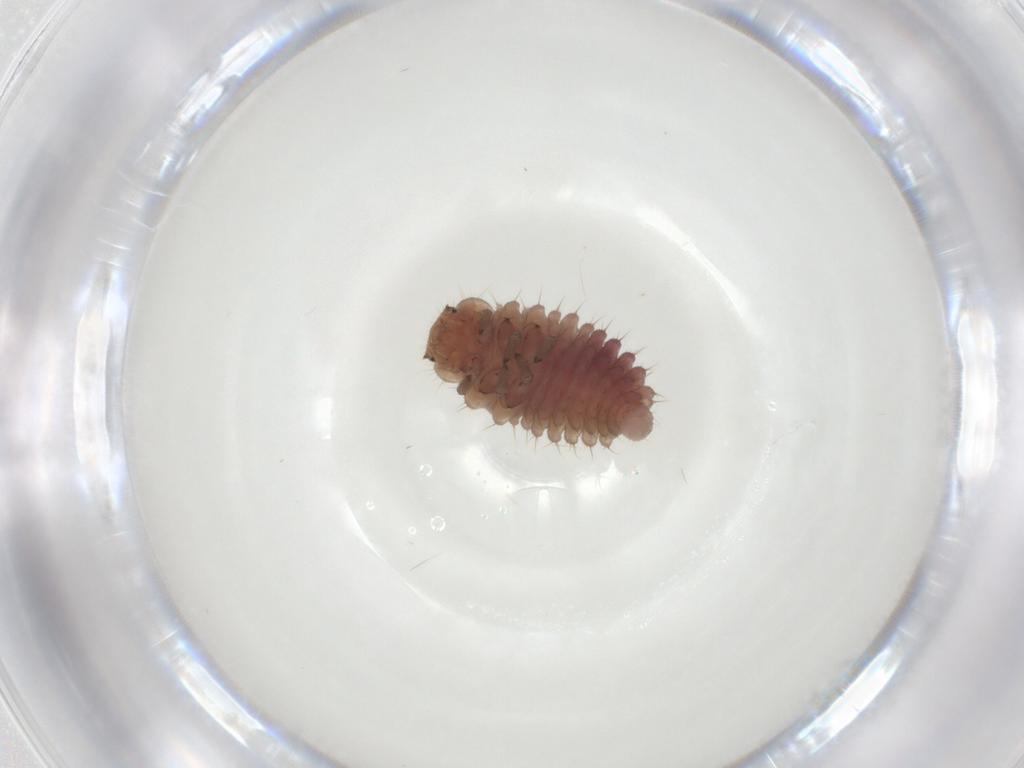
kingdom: Animalia
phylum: Arthropoda
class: Insecta
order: Coleoptera
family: Coccinellidae
